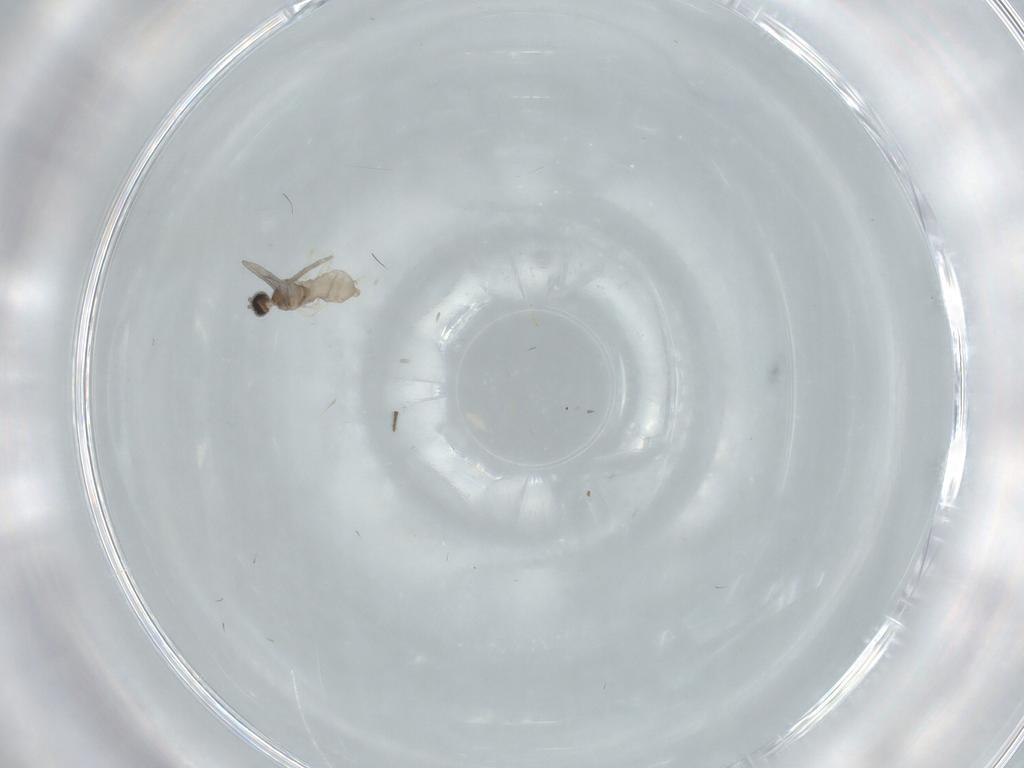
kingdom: Animalia
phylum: Arthropoda
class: Insecta
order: Diptera
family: Cecidomyiidae
